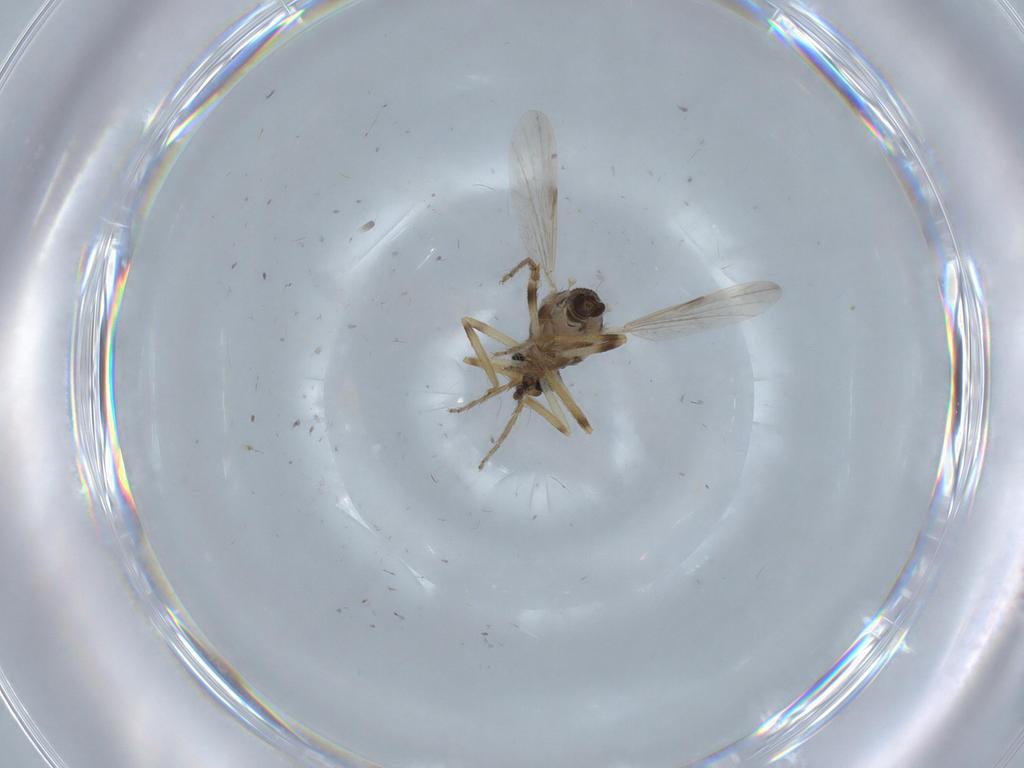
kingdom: Animalia
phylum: Arthropoda
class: Insecta
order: Diptera
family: Ceratopogonidae
